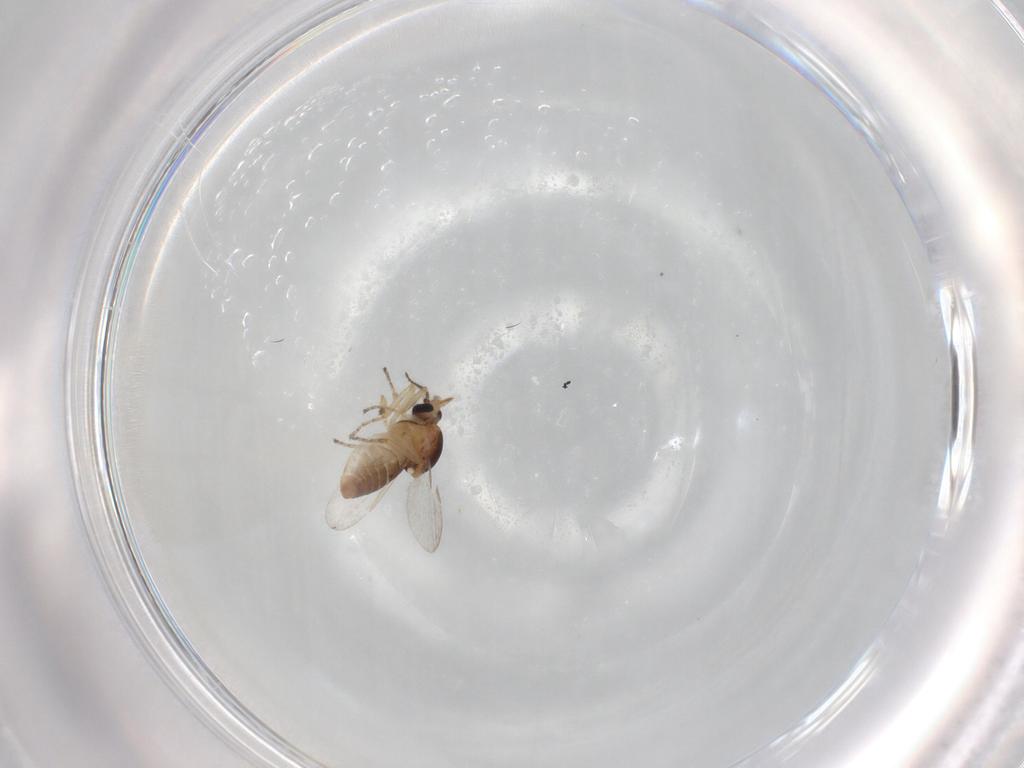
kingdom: Animalia
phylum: Arthropoda
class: Insecta
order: Diptera
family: Ceratopogonidae
